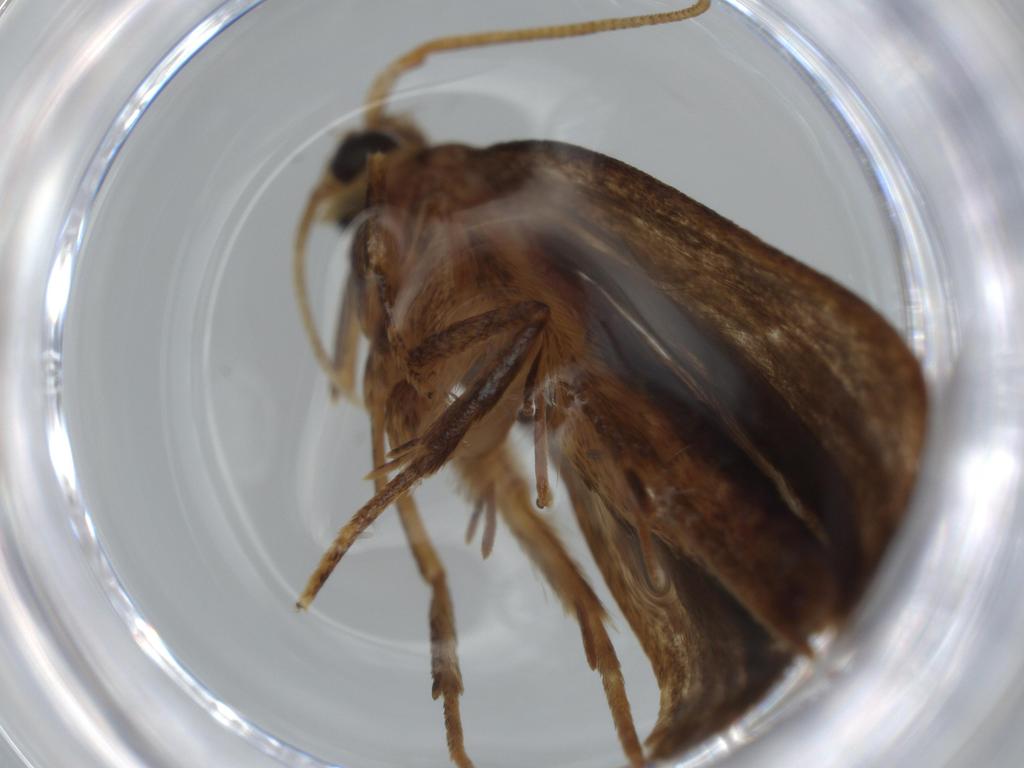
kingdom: Animalia
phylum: Arthropoda
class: Insecta
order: Lepidoptera
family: Autostichidae
